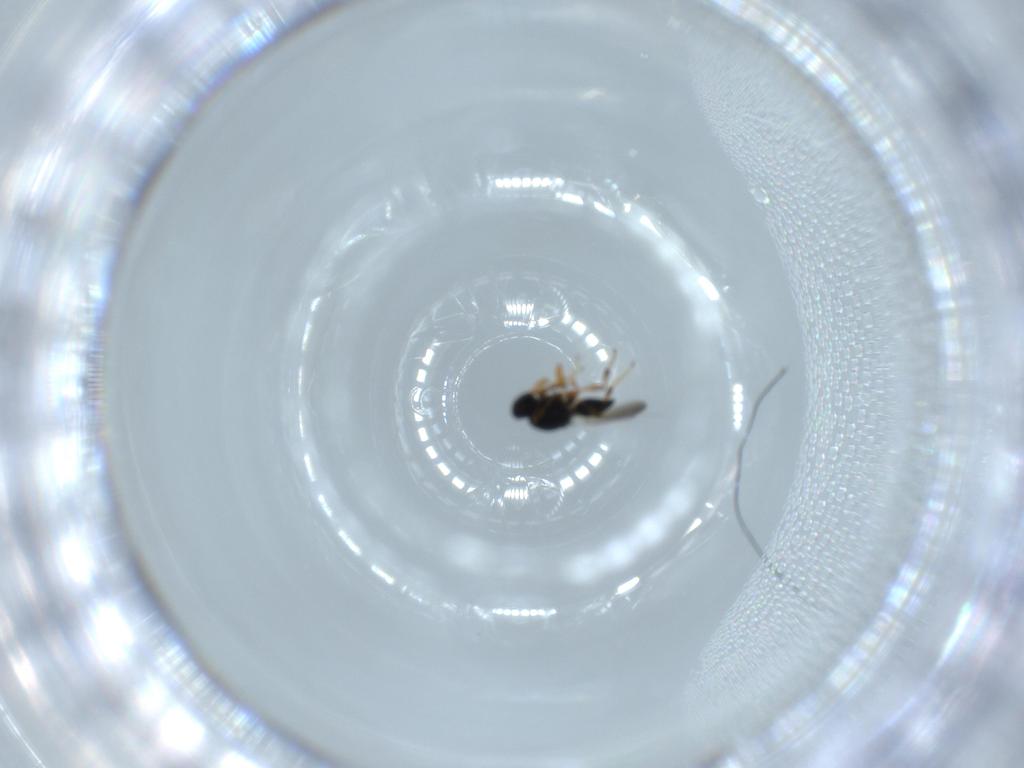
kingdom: Animalia
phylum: Arthropoda
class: Insecta
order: Hymenoptera
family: Platygastridae
